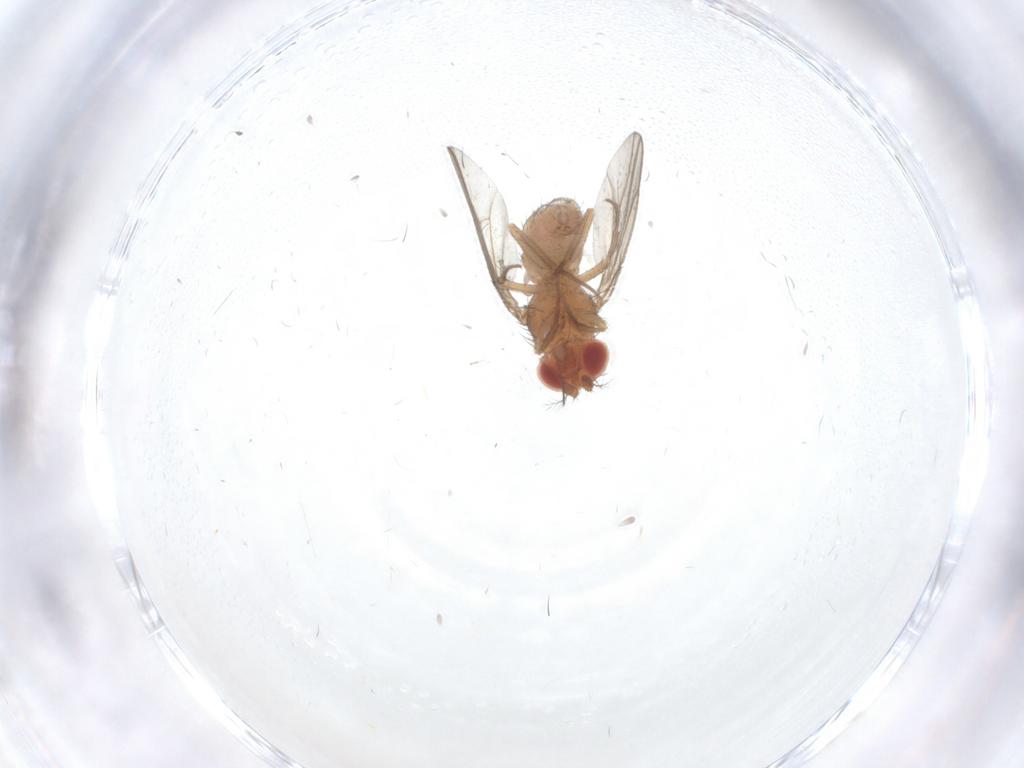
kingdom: Animalia
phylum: Arthropoda
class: Insecta
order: Diptera
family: Drosophilidae
